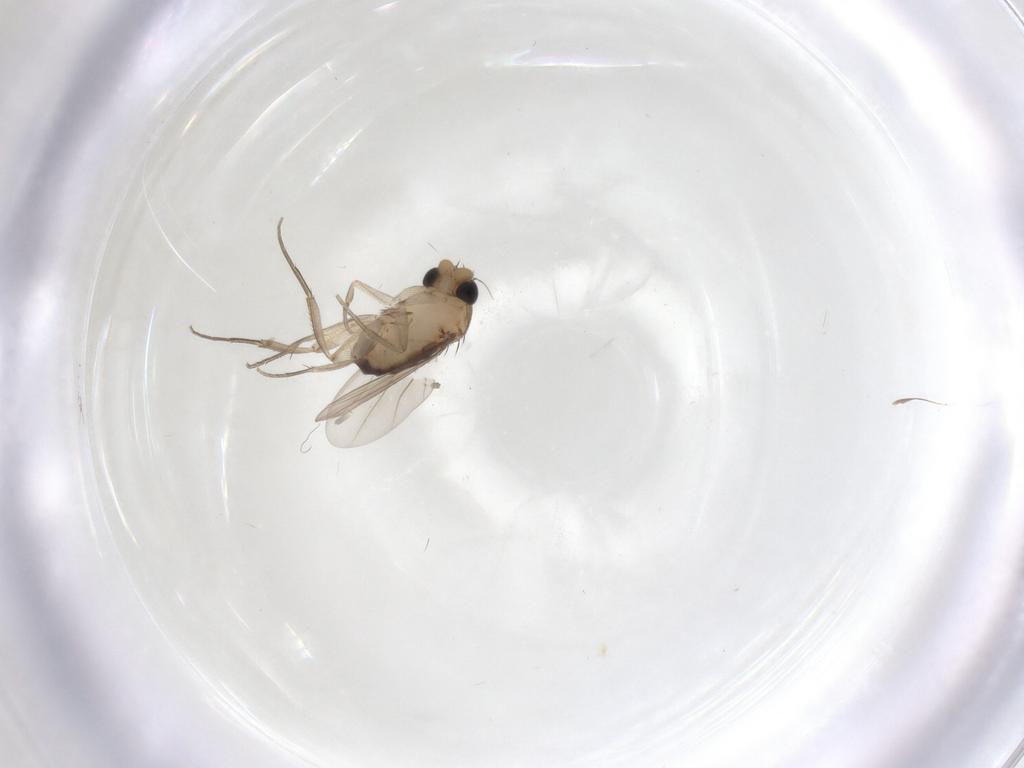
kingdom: Animalia
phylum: Arthropoda
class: Insecta
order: Diptera
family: Phoridae
